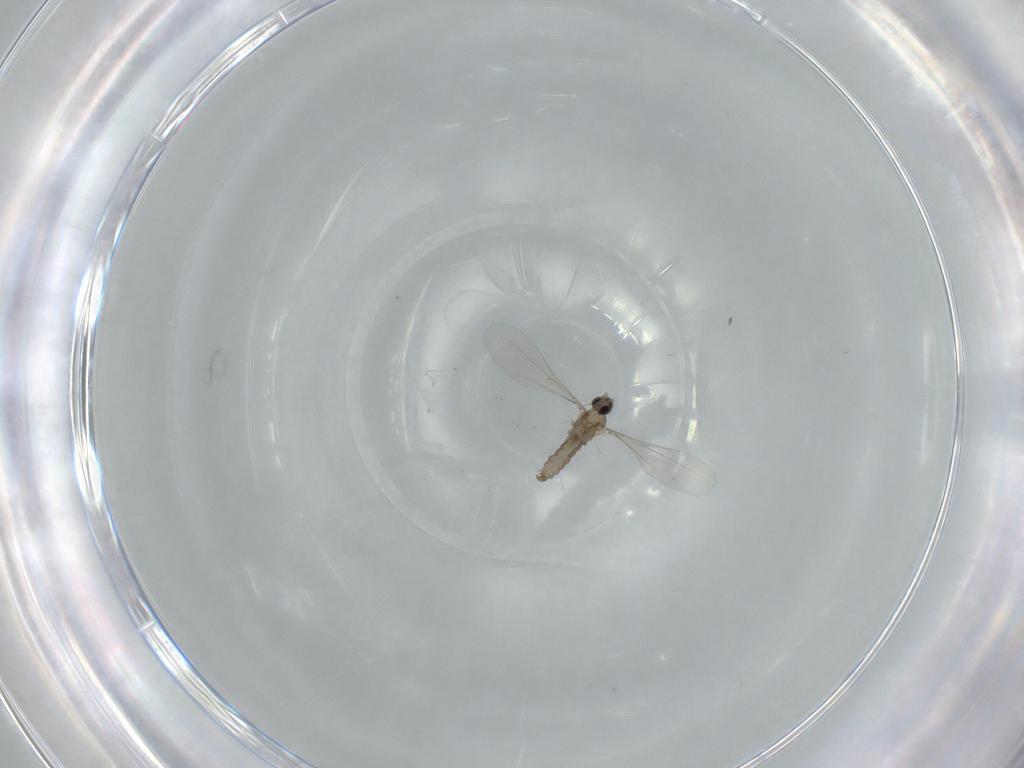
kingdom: Animalia
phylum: Arthropoda
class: Insecta
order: Diptera
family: Cecidomyiidae
